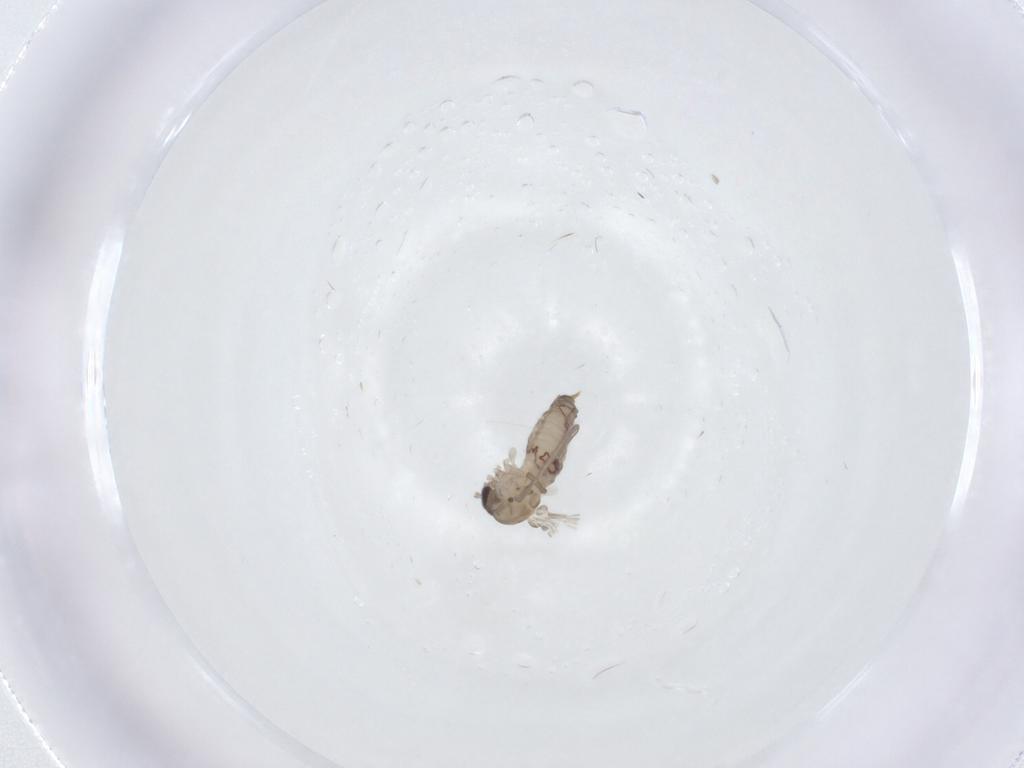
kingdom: Animalia
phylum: Arthropoda
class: Insecta
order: Diptera
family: Psychodidae
